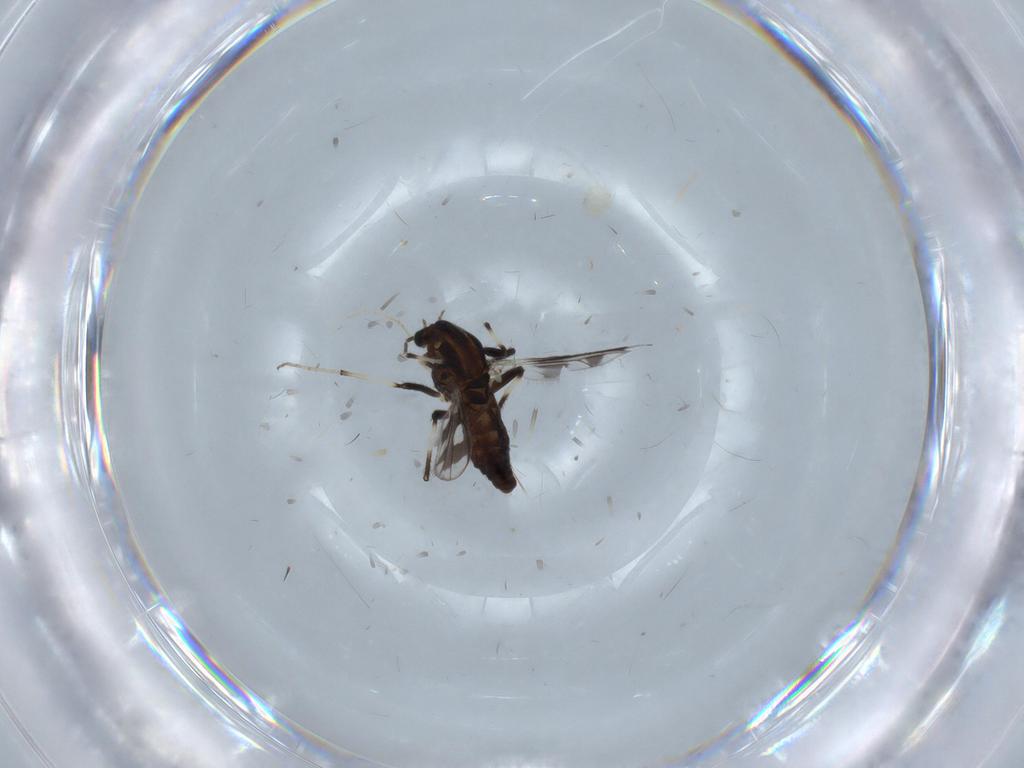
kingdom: Animalia
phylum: Arthropoda
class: Insecta
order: Diptera
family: Chironomidae
